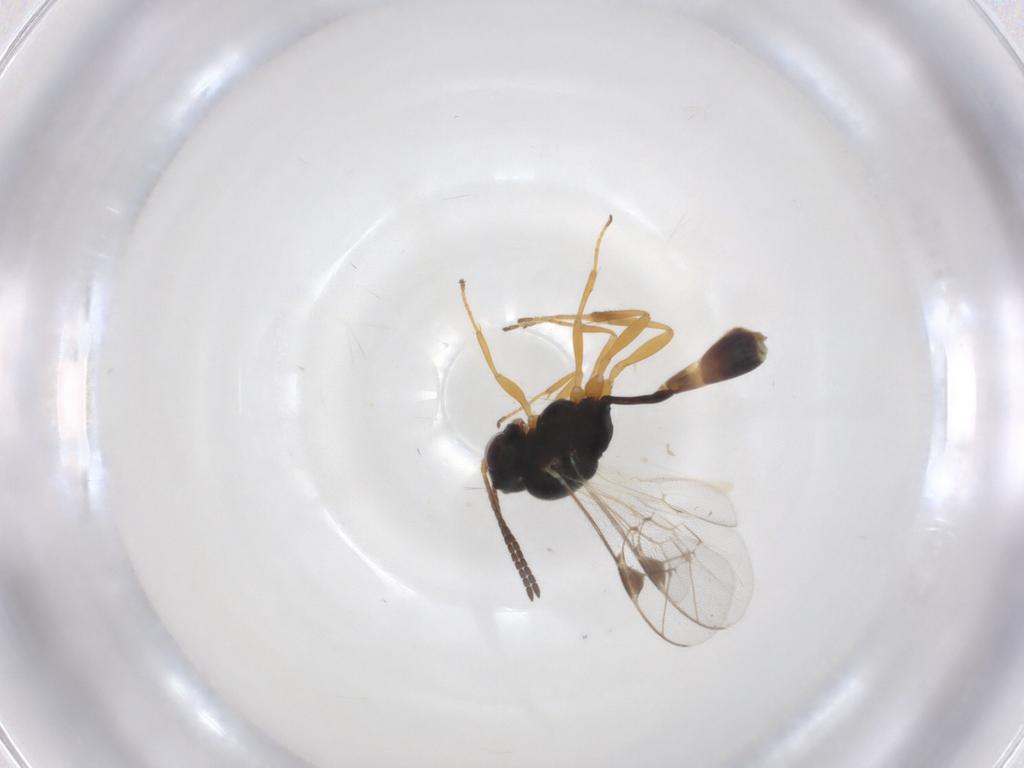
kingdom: Animalia
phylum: Arthropoda
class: Insecta
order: Hymenoptera
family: Ichneumonidae
